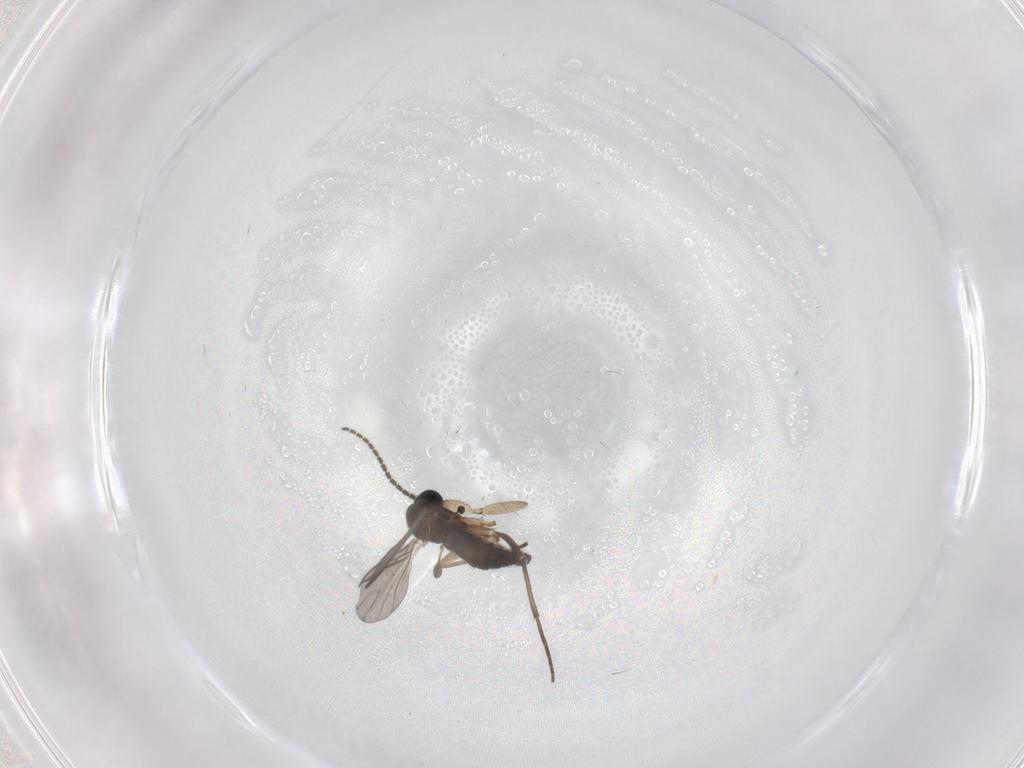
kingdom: Animalia
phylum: Arthropoda
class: Insecta
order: Diptera
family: Sciaridae
